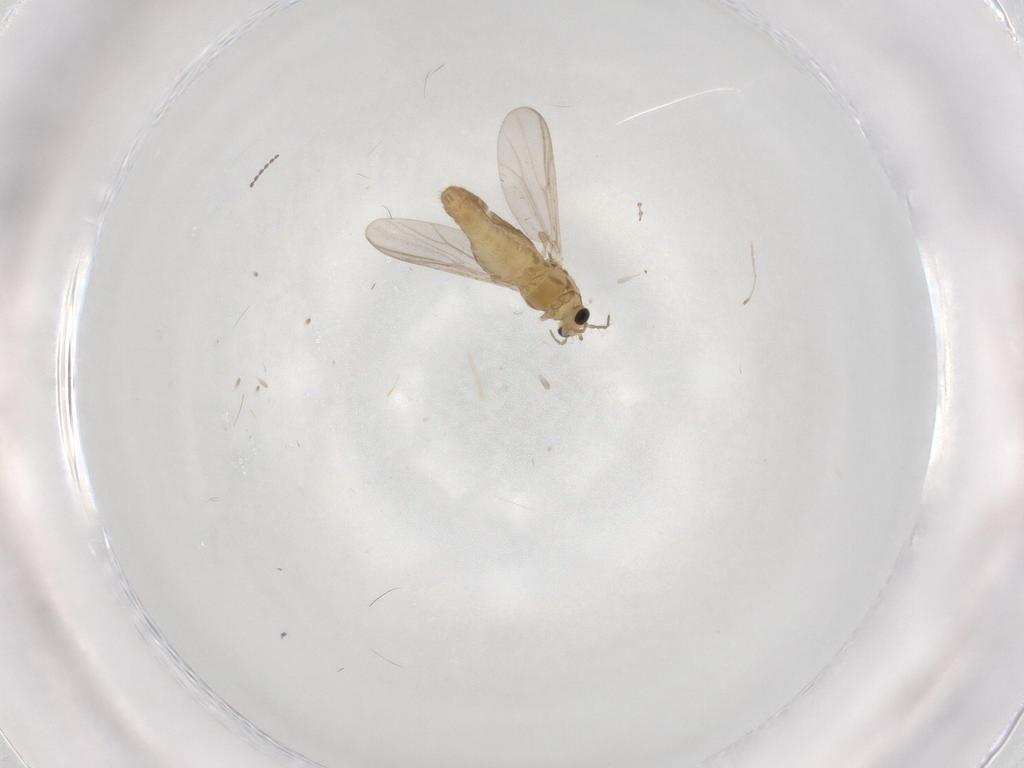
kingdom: Animalia
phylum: Arthropoda
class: Insecta
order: Diptera
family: Chironomidae
